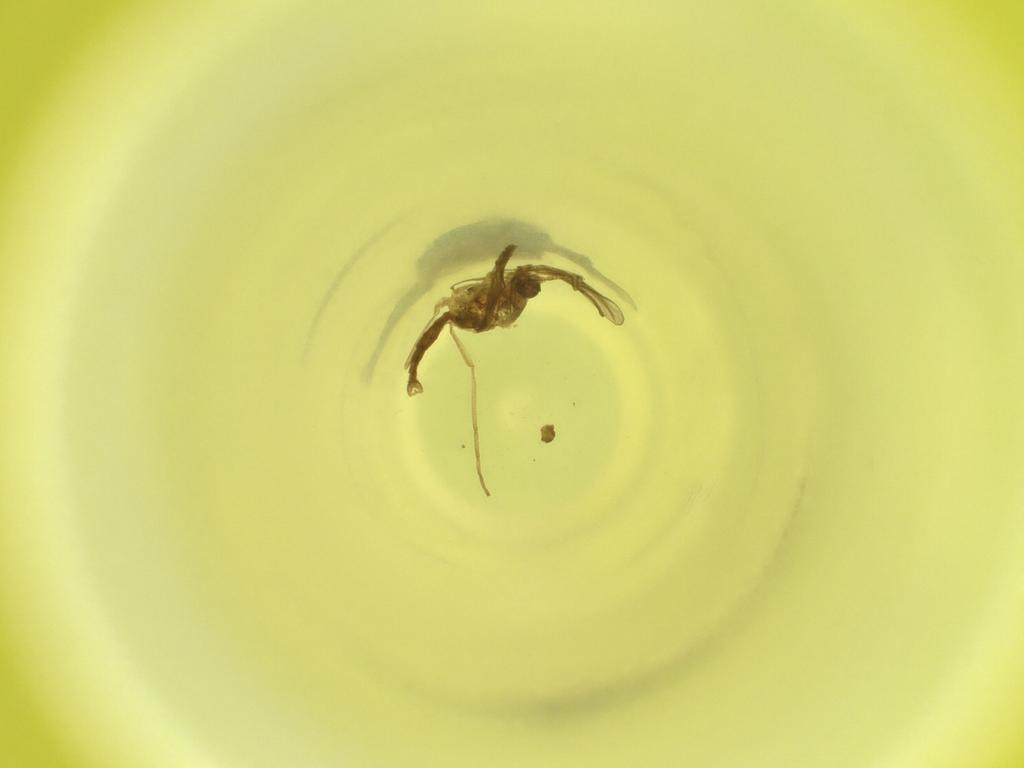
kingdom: Animalia
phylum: Arthropoda
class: Insecta
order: Diptera
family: Cecidomyiidae
